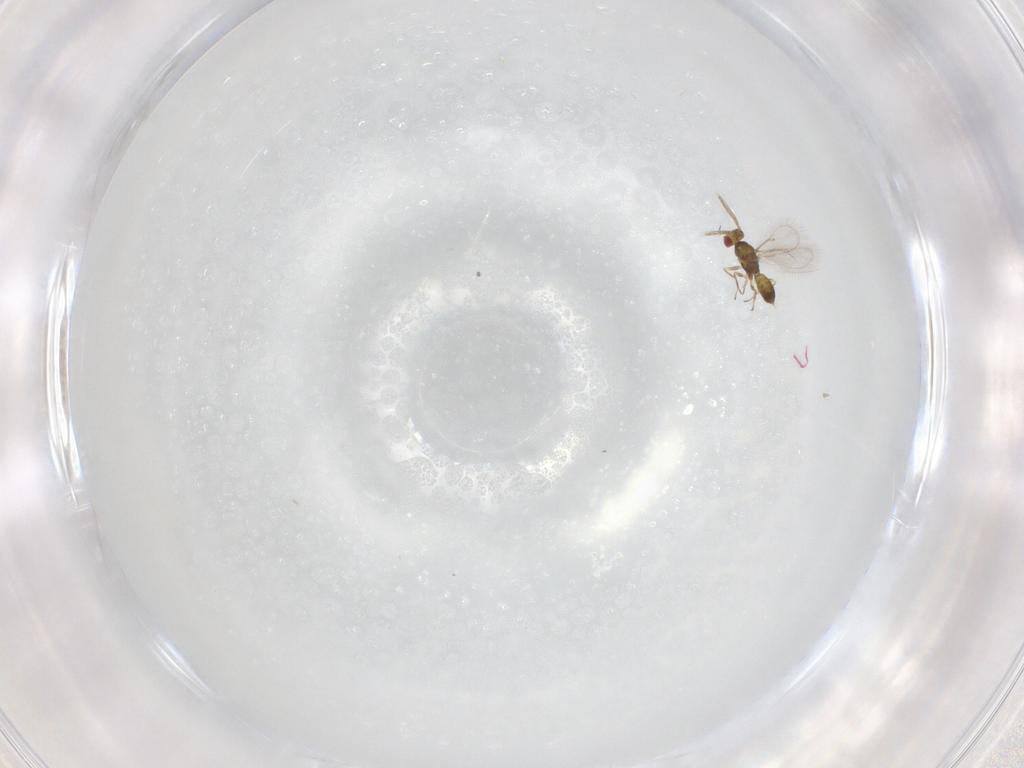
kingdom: Animalia
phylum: Arthropoda
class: Insecta
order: Hymenoptera
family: Eulophidae
